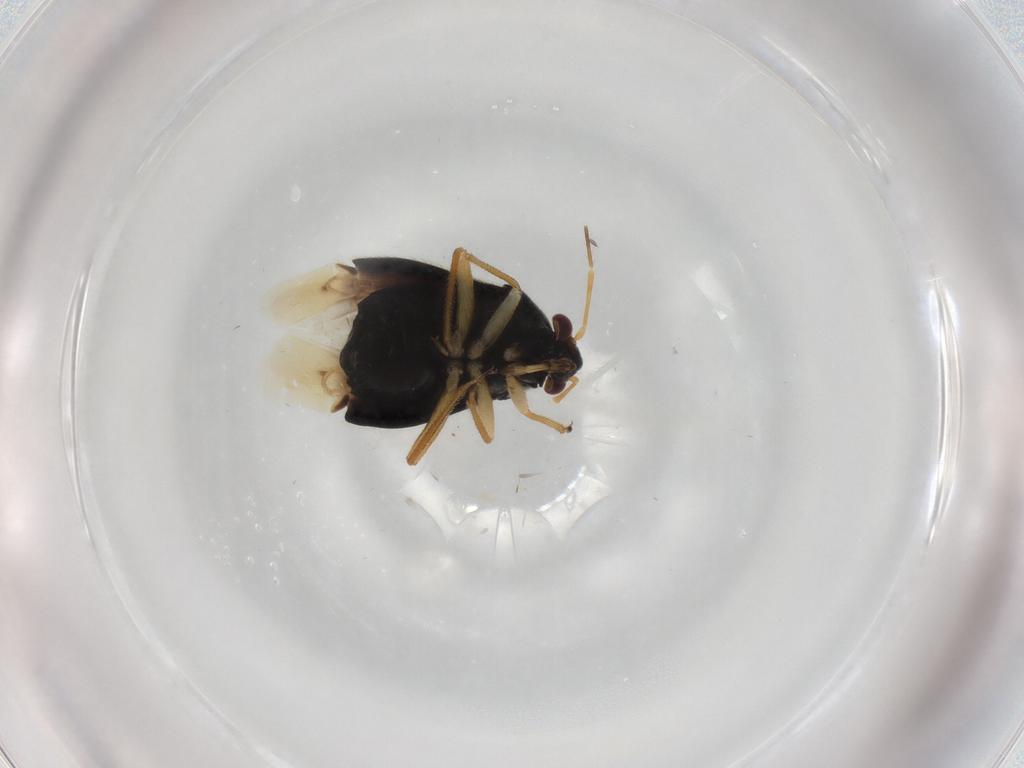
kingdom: Animalia
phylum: Arthropoda
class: Insecta
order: Hemiptera
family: Miridae
